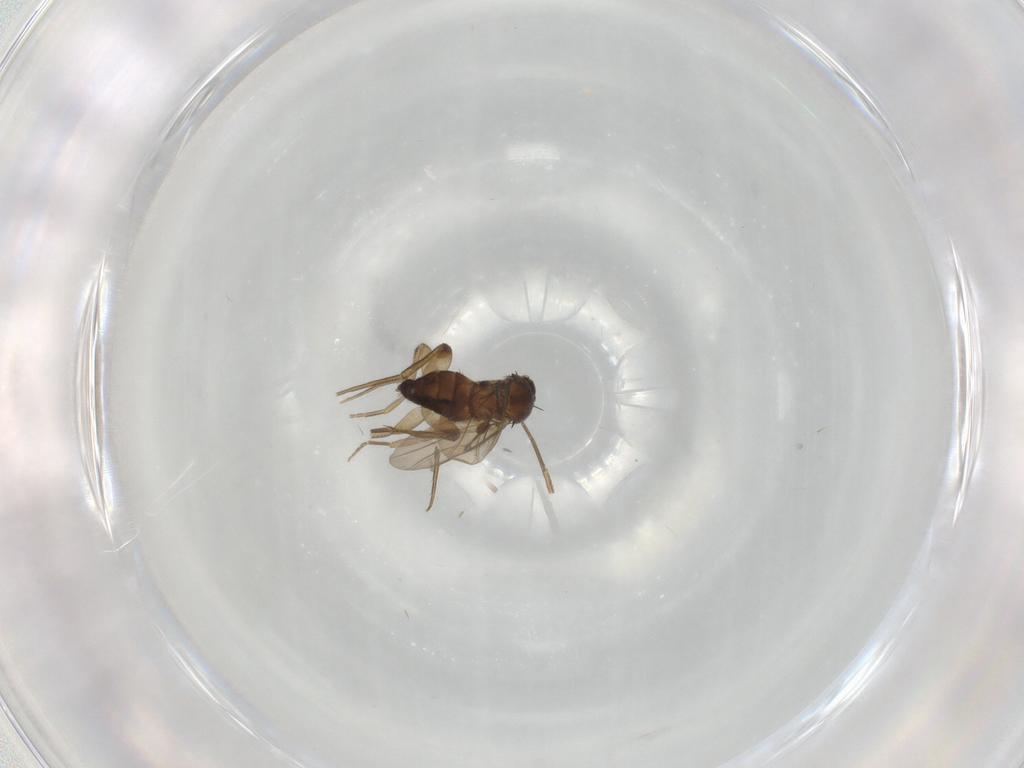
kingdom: Animalia
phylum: Arthropoda
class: Insecta
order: Diptera
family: Phoridae
